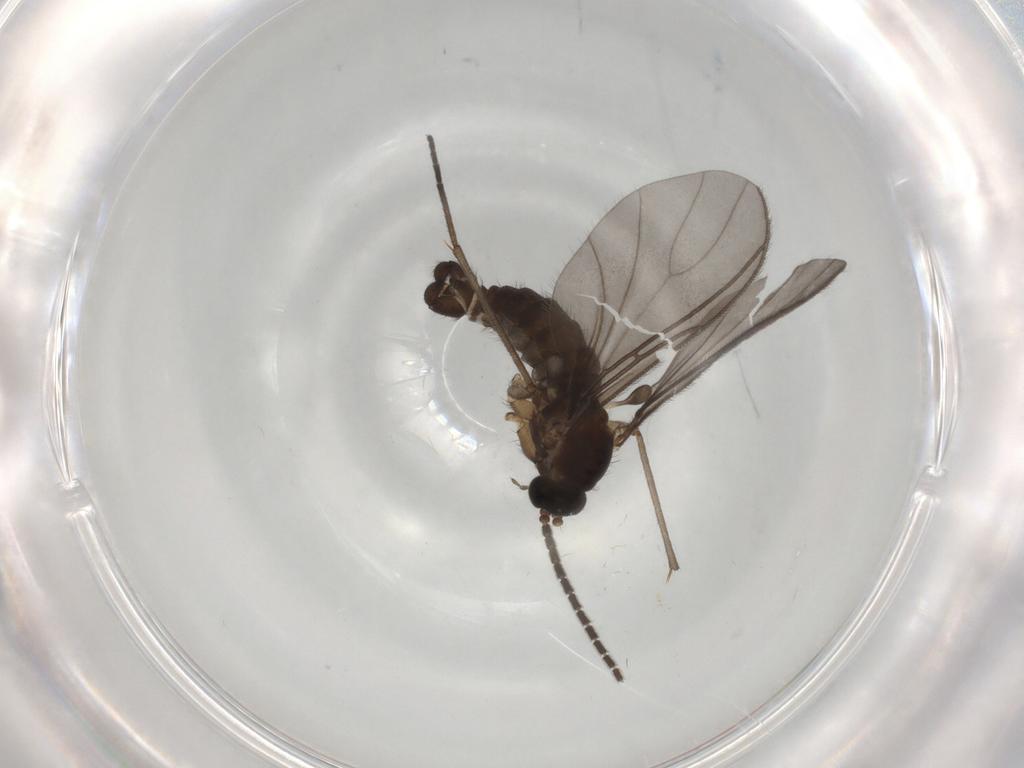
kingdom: Animalia
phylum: Arthropoda
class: Insecta
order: Diptera
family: Sciaridae
